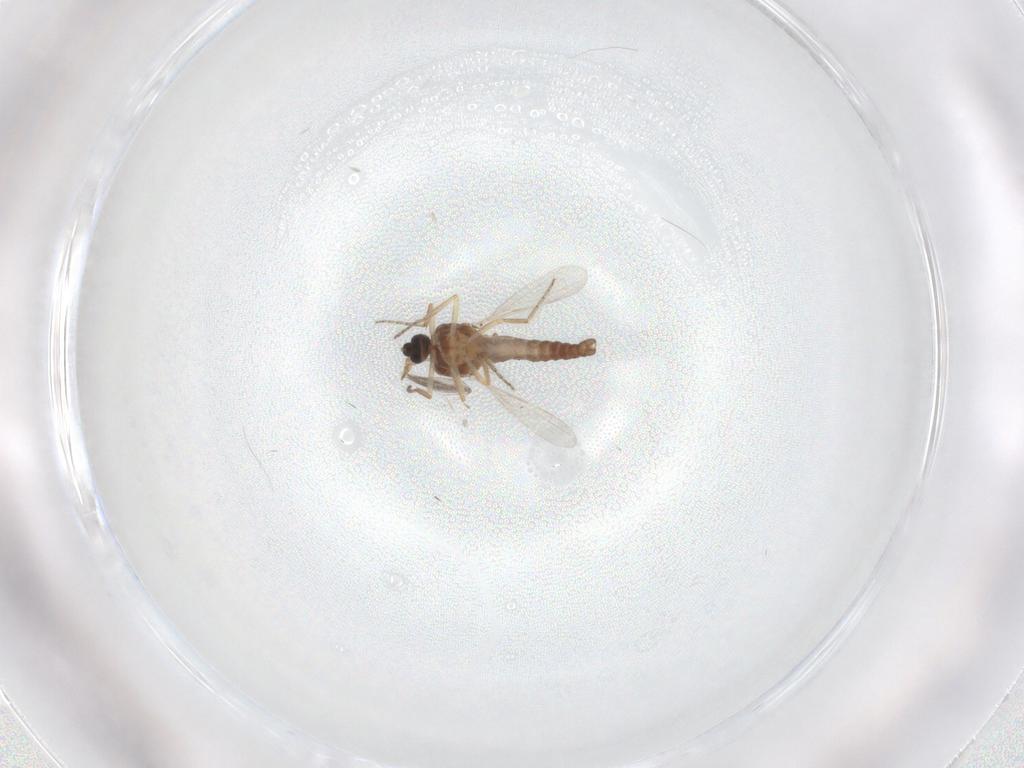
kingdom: Animalia
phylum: Arthropoda
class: Insecta
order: Diptera
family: Ceratopogonidae
